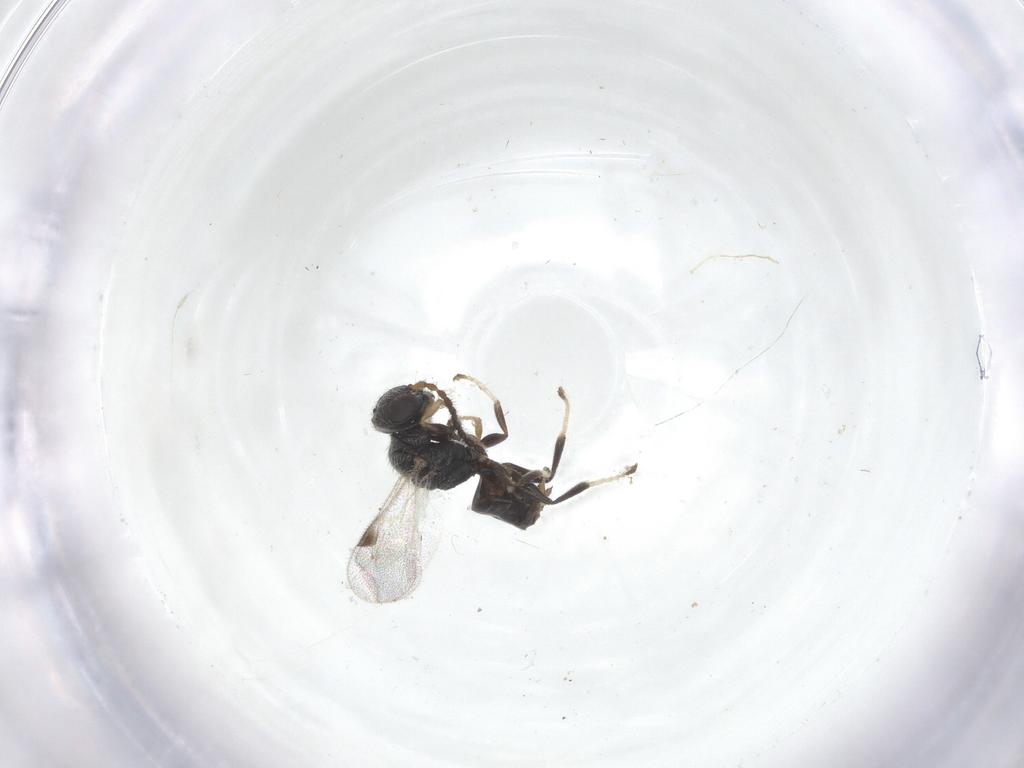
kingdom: Animalia
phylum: Arthropoda
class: Insecta
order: Hymenoptera
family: Dryinidae
